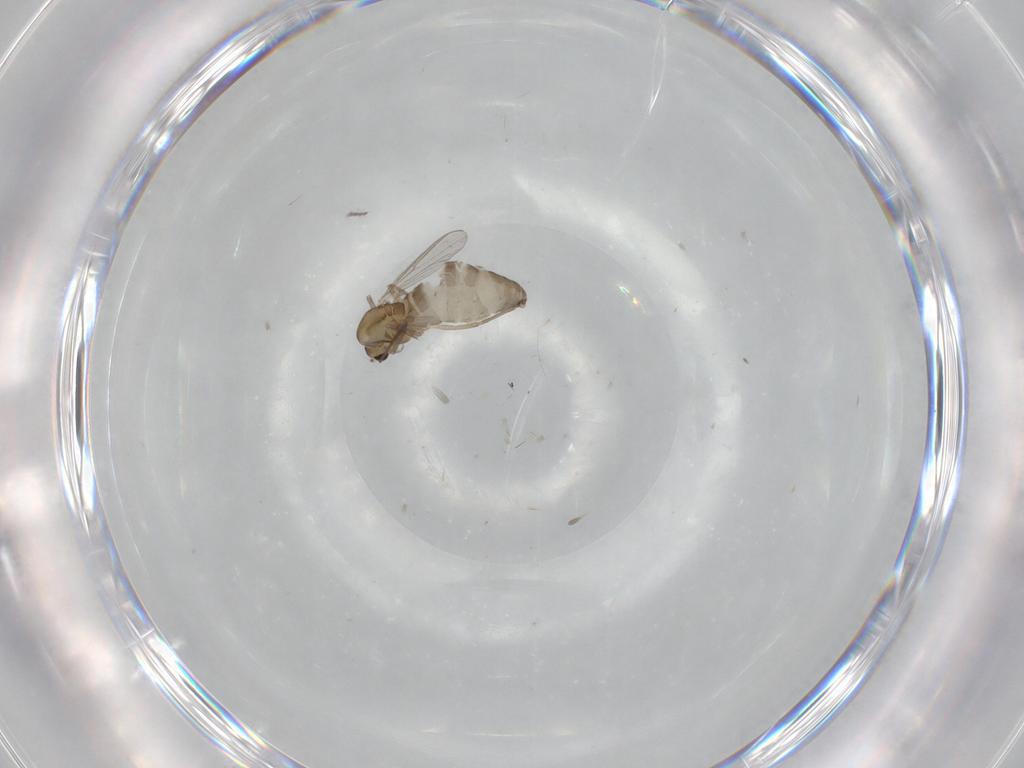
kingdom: Animalia
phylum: Arthropoda
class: Insecta
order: Diptera
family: Chironomidae
